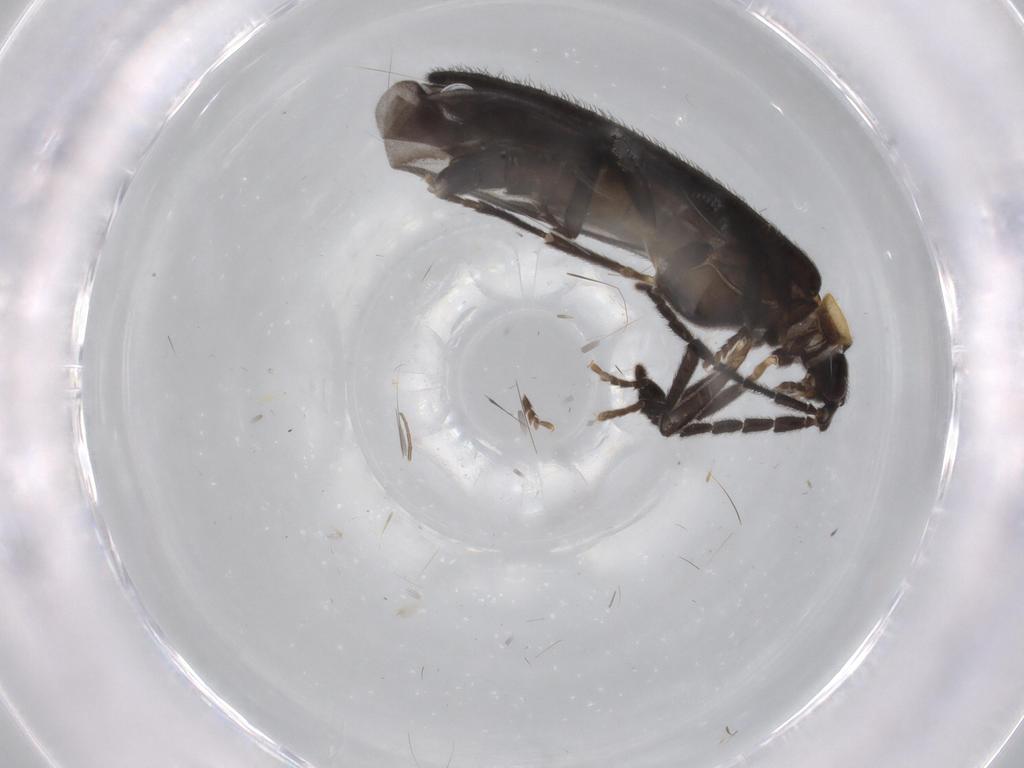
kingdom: Animalia
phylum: Arthropoda
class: Insecta
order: Coleoptera
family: Lycidae
